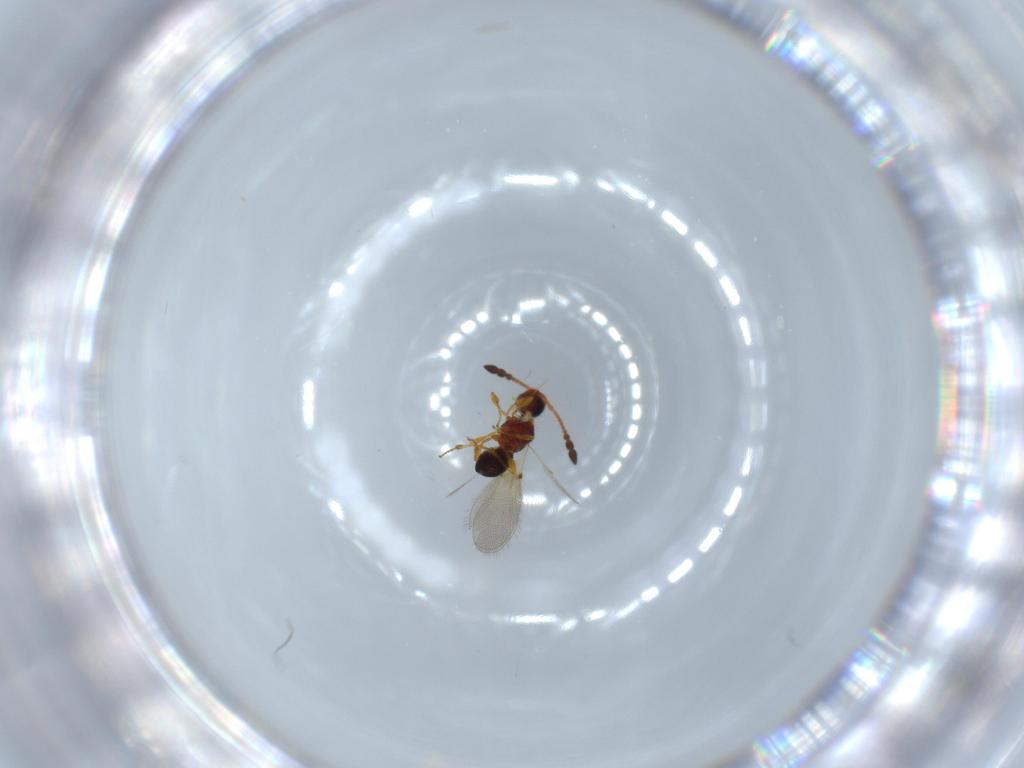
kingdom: Animalia
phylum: Arthropoda
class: Insecta
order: Hymenoptera
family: Diapriidae
